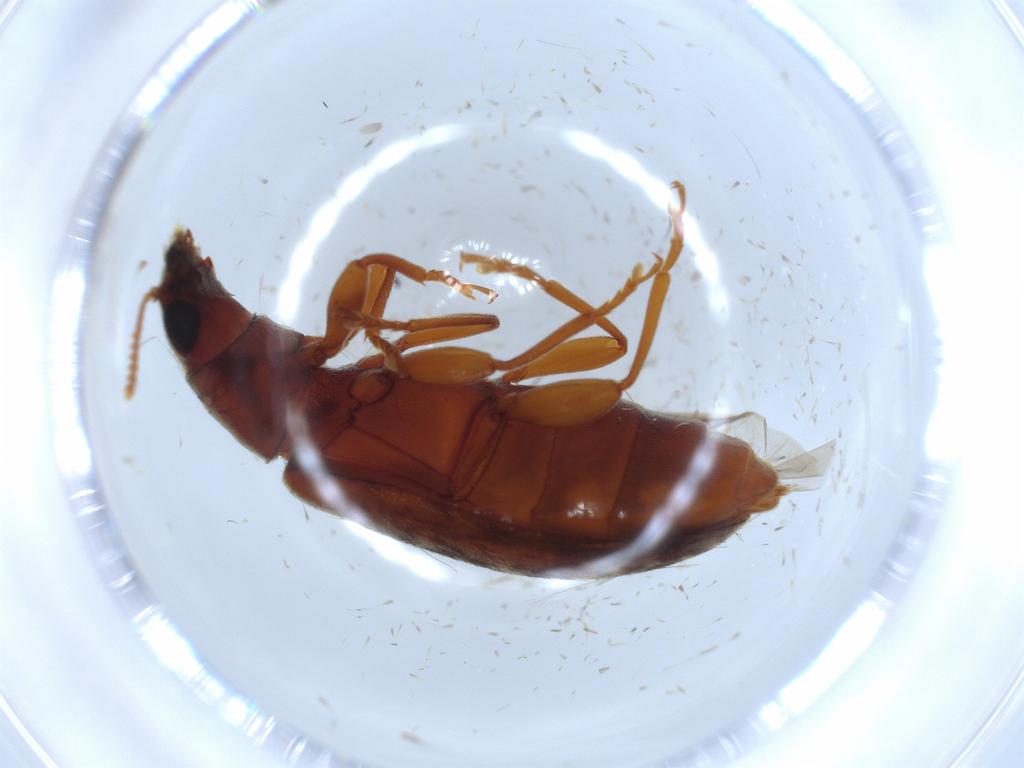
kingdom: Animalia
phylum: Arthropoda
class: Insecta
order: Coleoptera
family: Mycteridae
